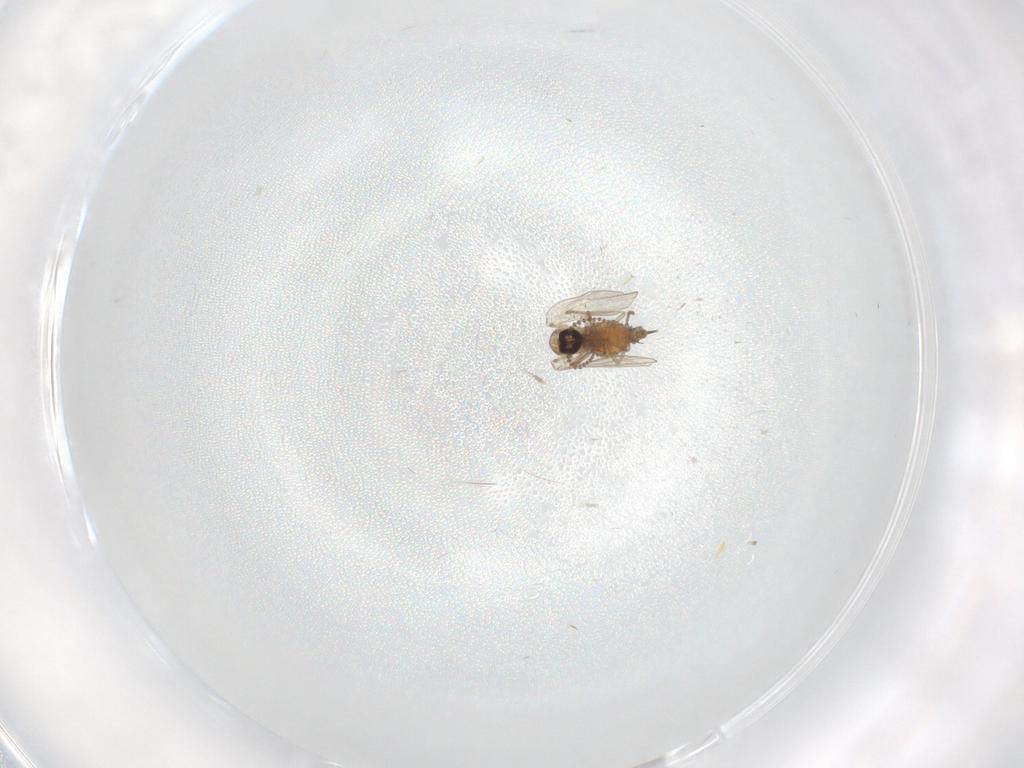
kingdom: Animalia
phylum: Arthropoda
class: Insecta
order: Diptera
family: Psychodidae
